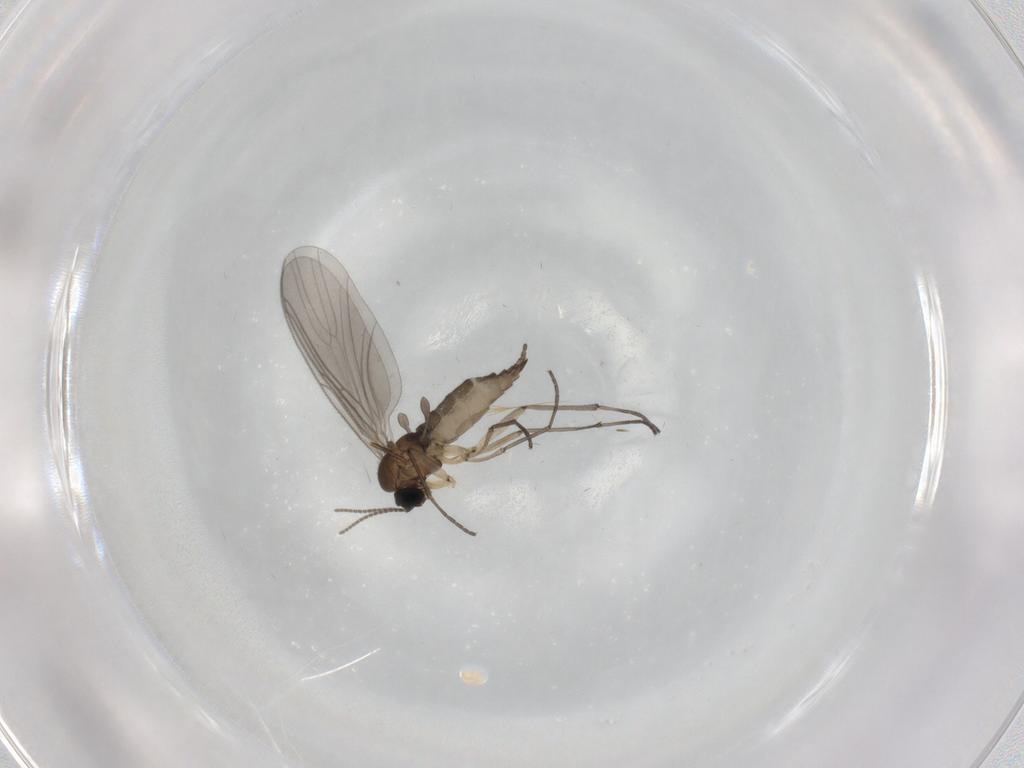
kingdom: Animalia
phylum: Arthropoda
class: Insecta
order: Diptera
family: Sciaridae
